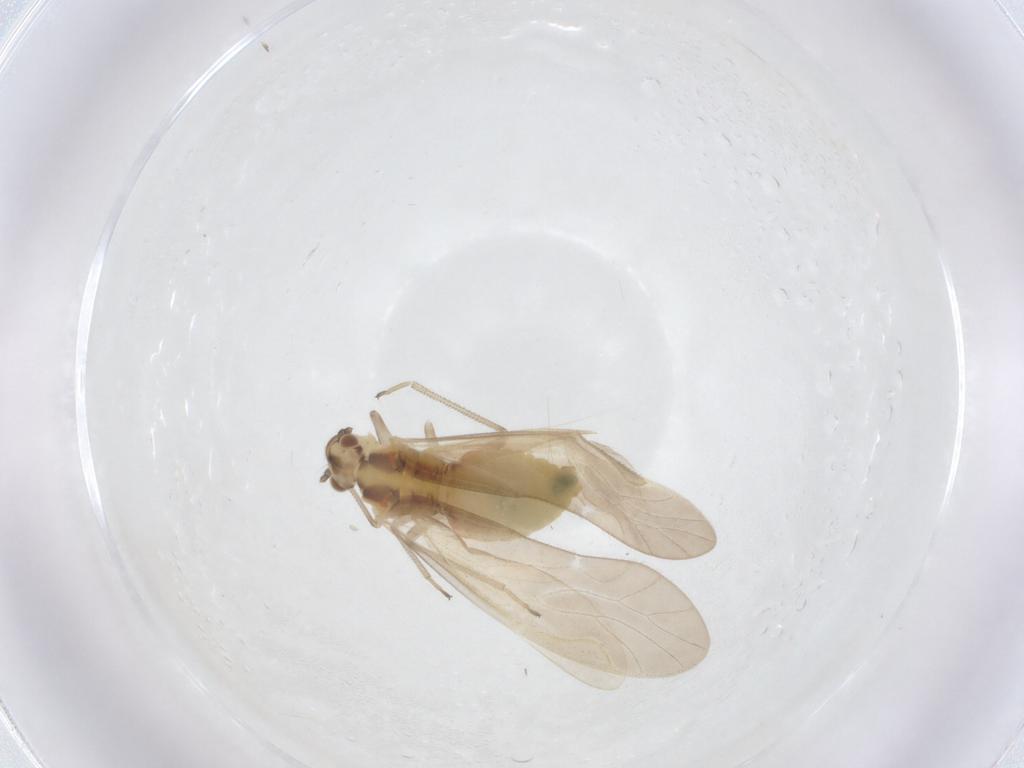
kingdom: Animalia
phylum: Arthropoda
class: Insecta
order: Psocodea
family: Caeciliusidae
